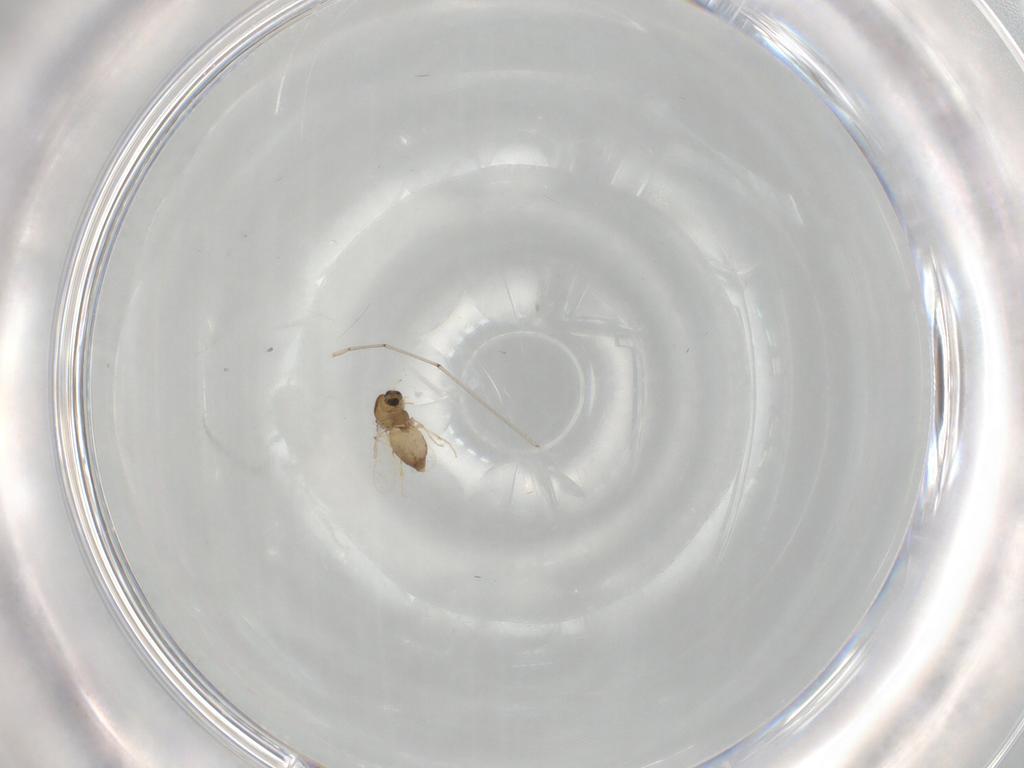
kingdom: Animalia
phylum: Arthropoda
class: Insecta
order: Diptera
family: Chironomidae
